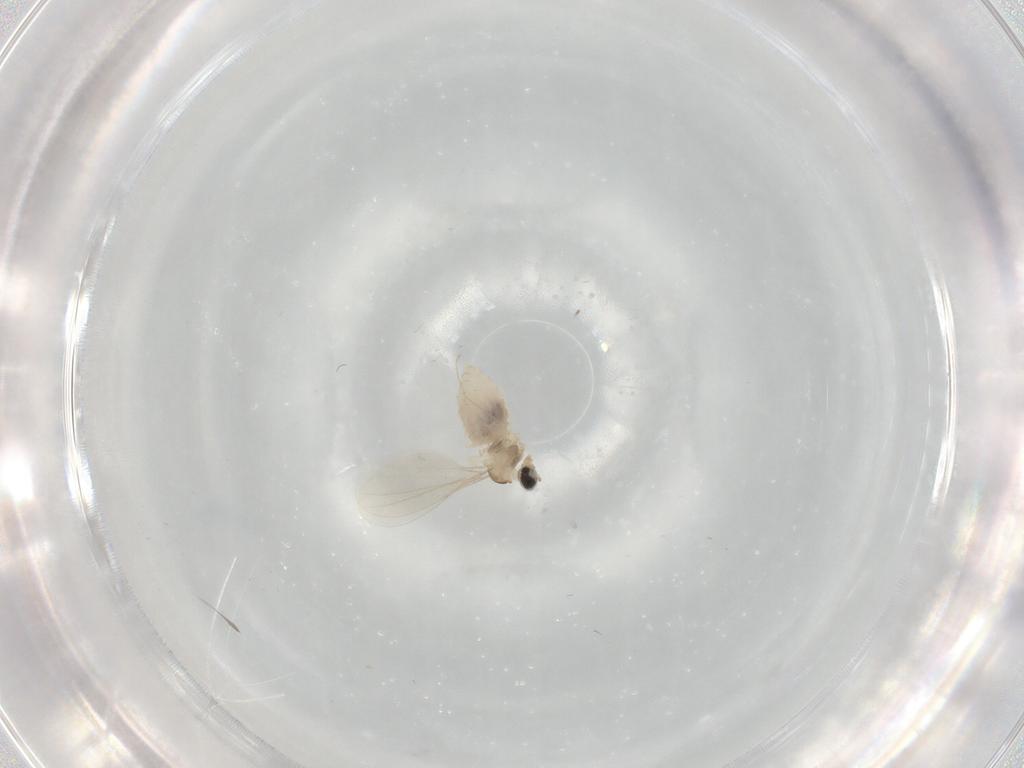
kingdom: Animalia
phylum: Arthropoda
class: Insecta
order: Diptera
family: Cecidomyiidae
